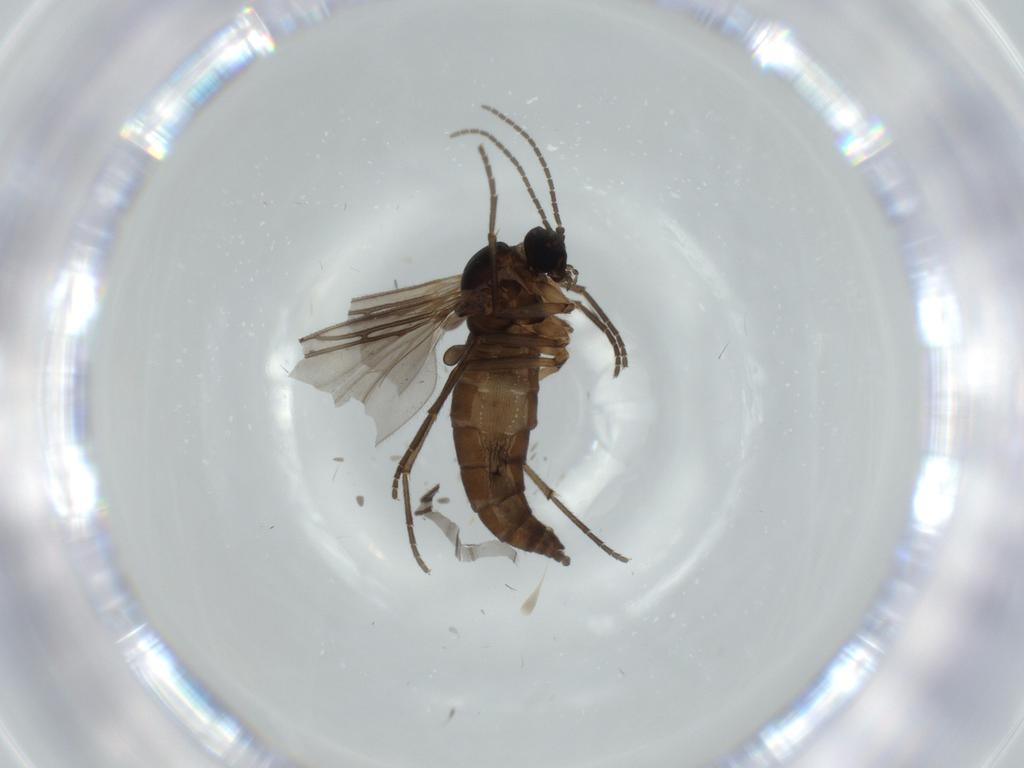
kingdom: Animalia
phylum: Arthropoda
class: Insecta
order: Diptera
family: Sciaridae
